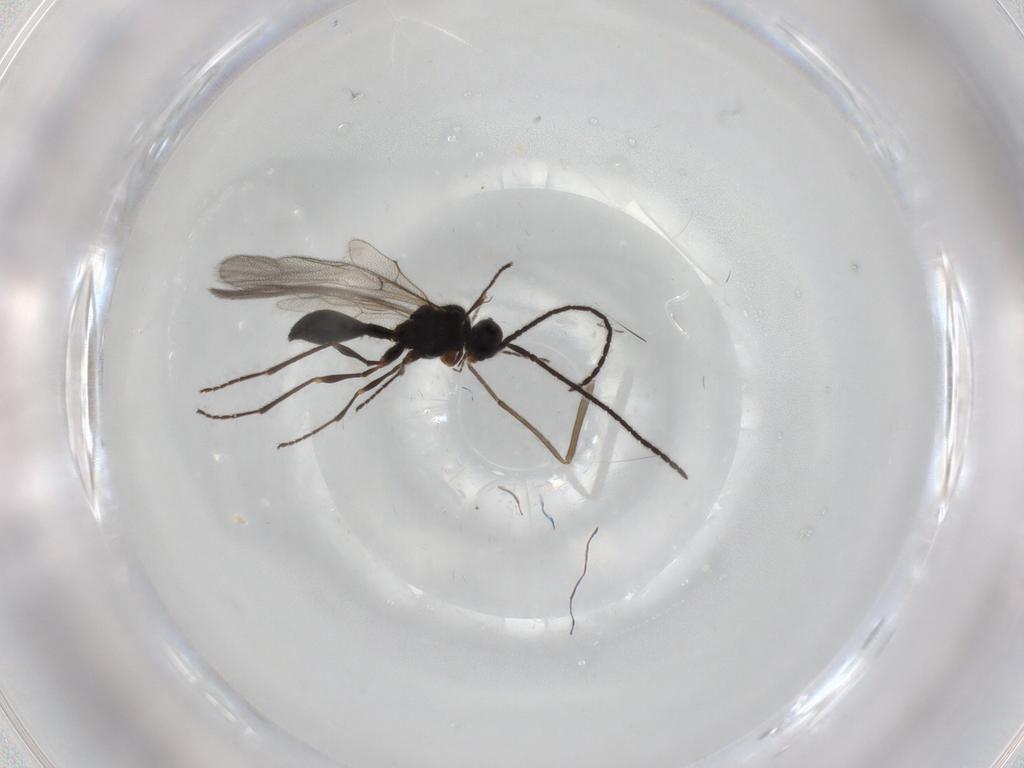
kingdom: Animalia
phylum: Arthropoda
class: Insecta
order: Hymenoptera
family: Diapriidae
